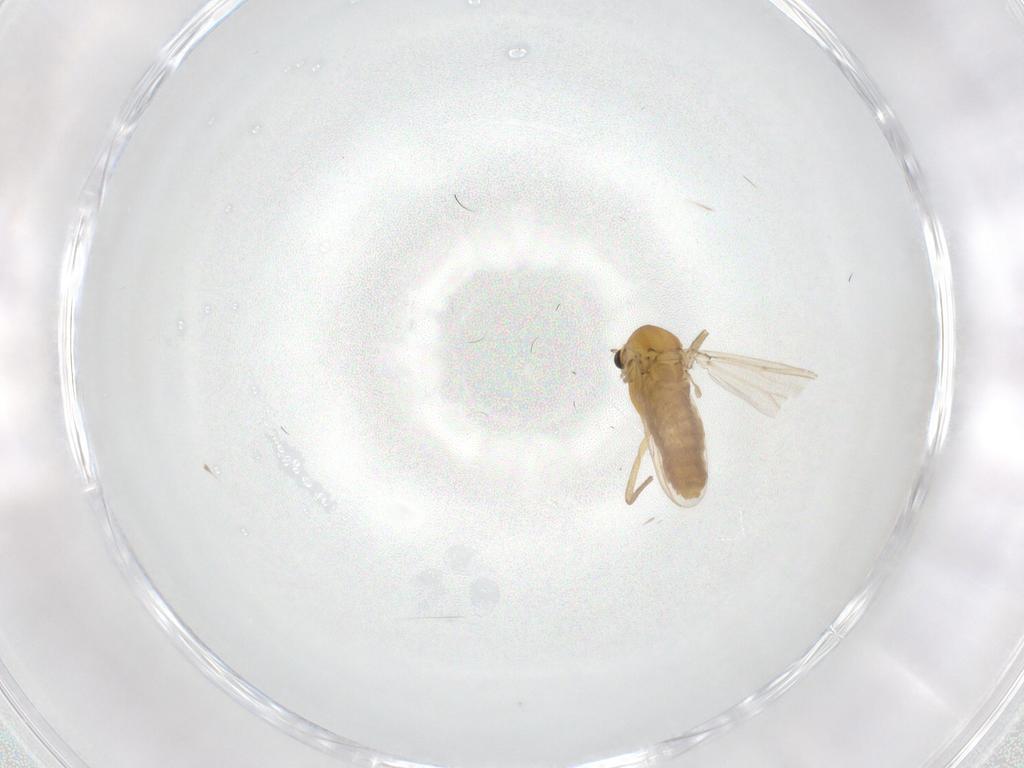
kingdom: Animalia
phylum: Arthropoda
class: Insecta
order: Diptera
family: Chironomidae
